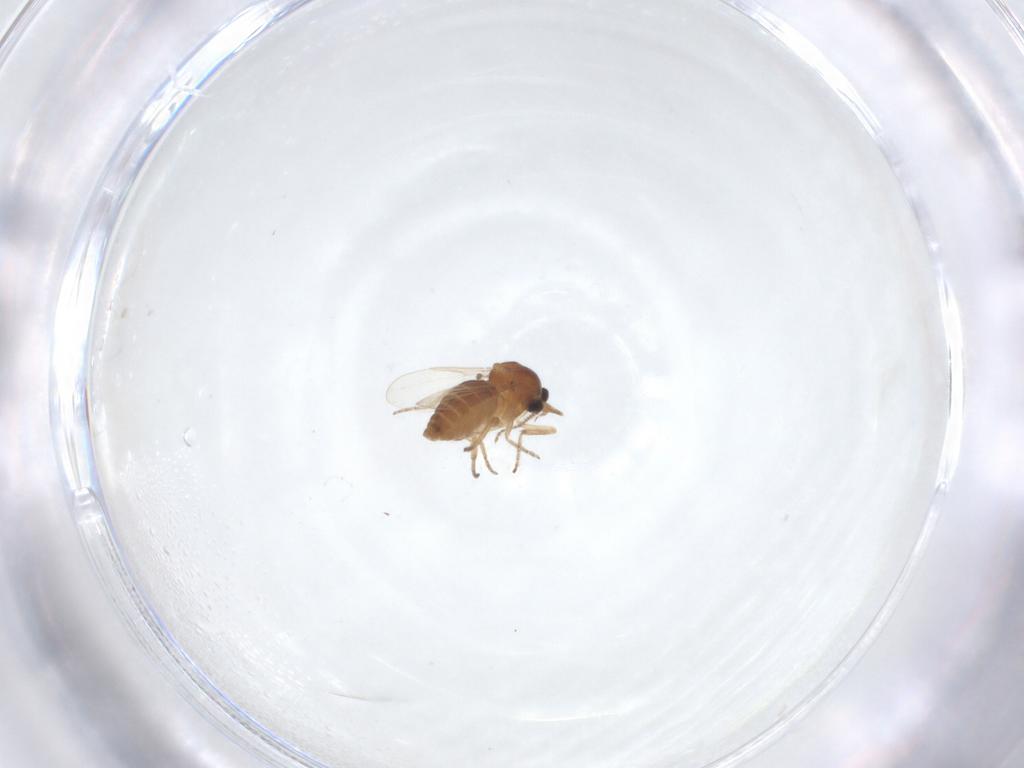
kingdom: Animalia
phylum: Arthropoda
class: Insecta
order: Diptera
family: Ceratopogonidae
